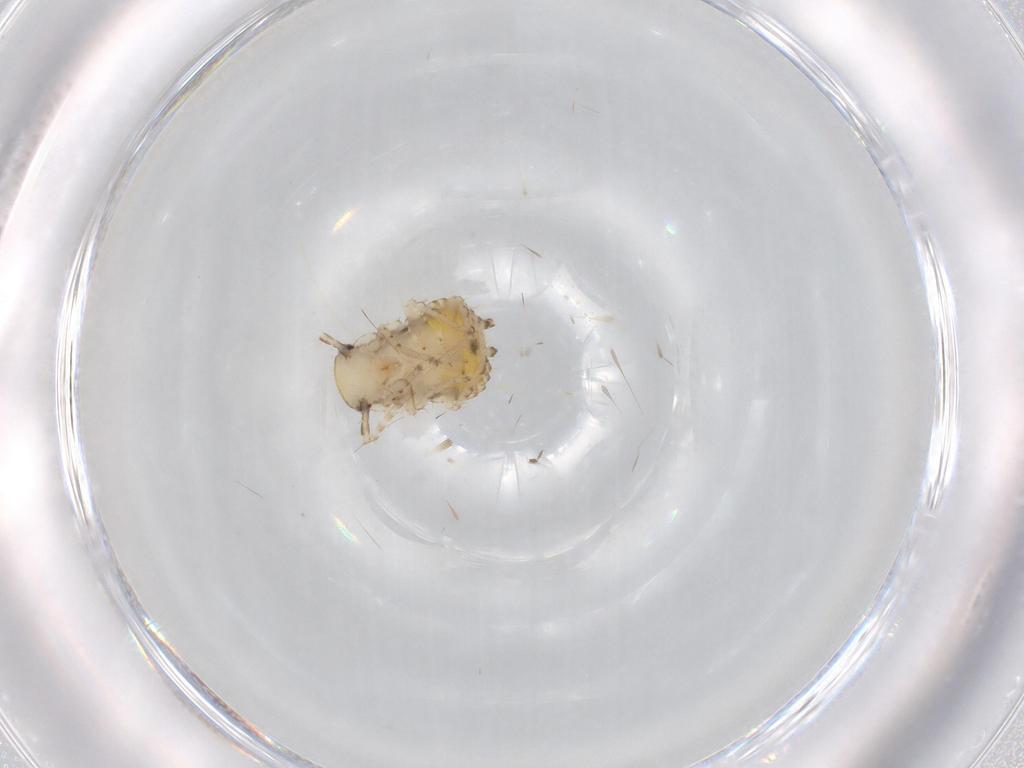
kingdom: Animalia
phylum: Arthropoda
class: Insecta
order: Blattodea
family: Ectobiidae
